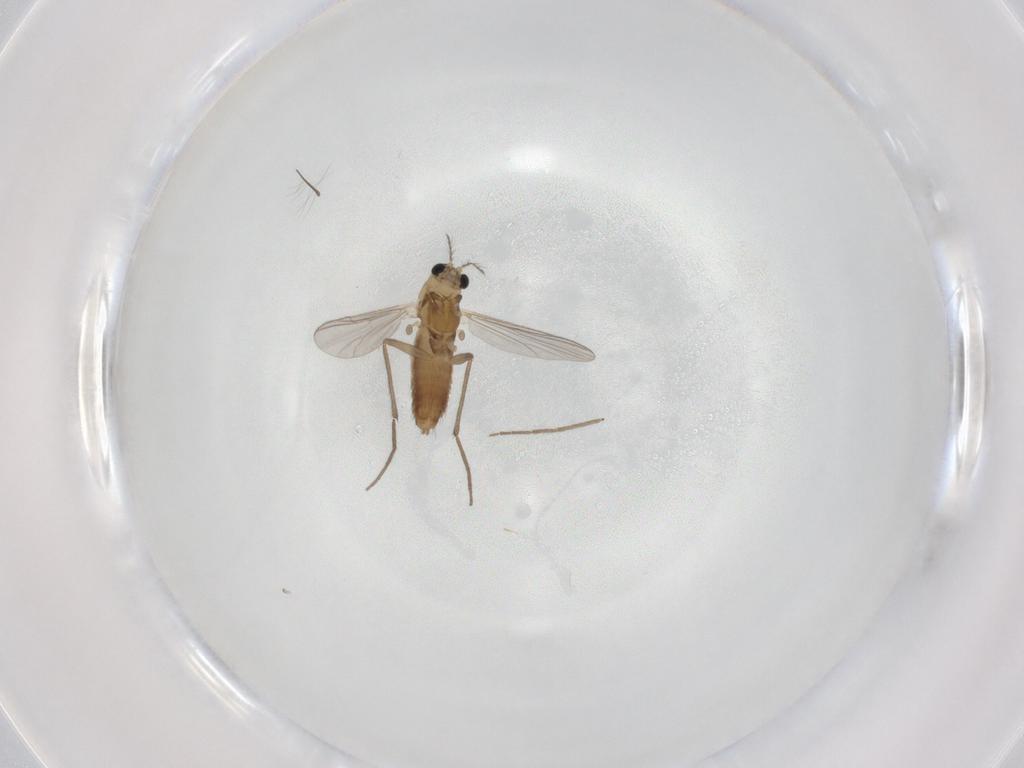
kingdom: Animalia
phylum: Arthropoda
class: Insecta
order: Diptera
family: Chironomidae
